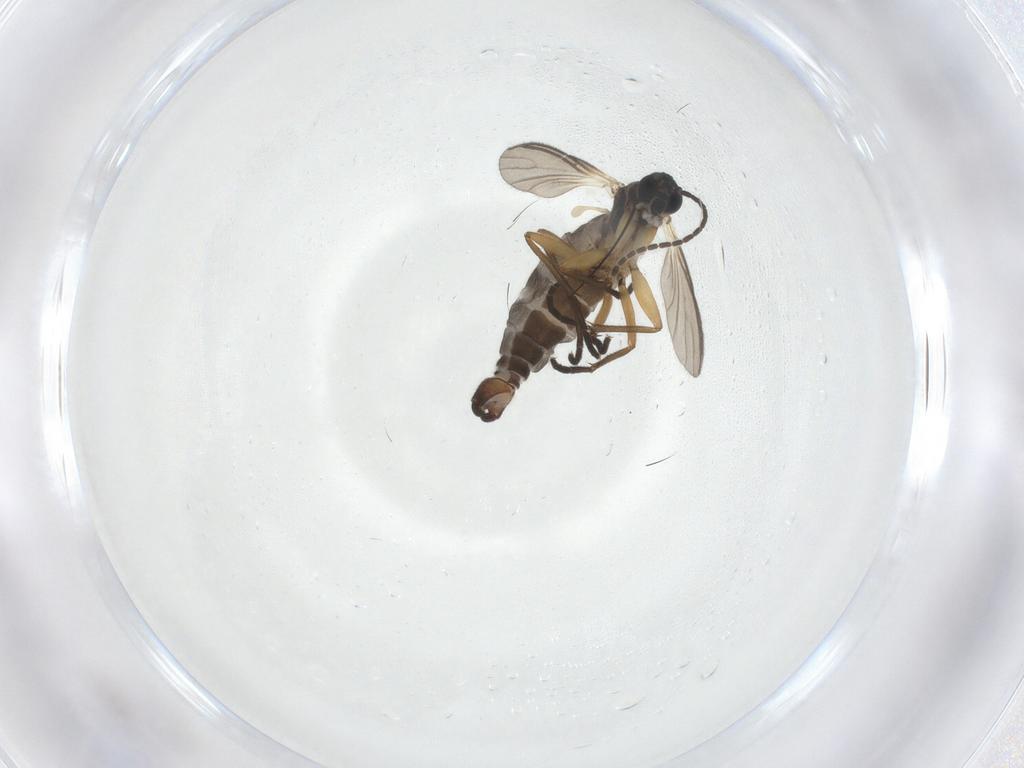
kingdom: Animalia
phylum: Arthropoda
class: Insecta
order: Diptera
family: Sciaridae
